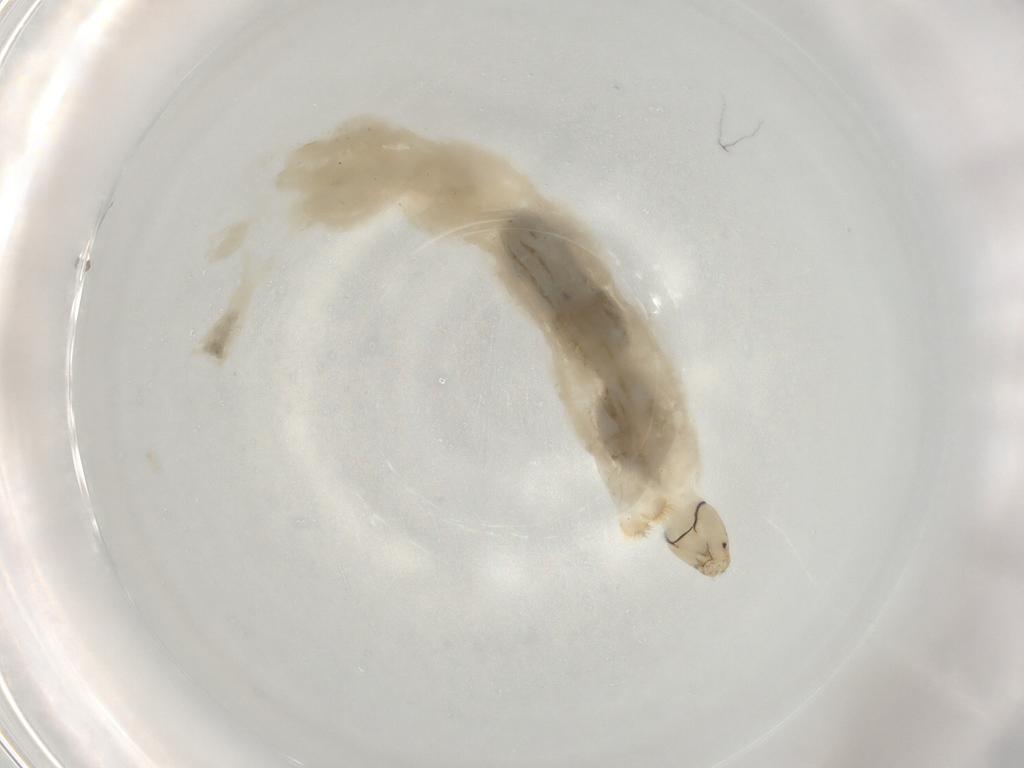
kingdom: Animalia
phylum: Arthropoda
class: Insecta
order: Diptera
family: Chironomidae
